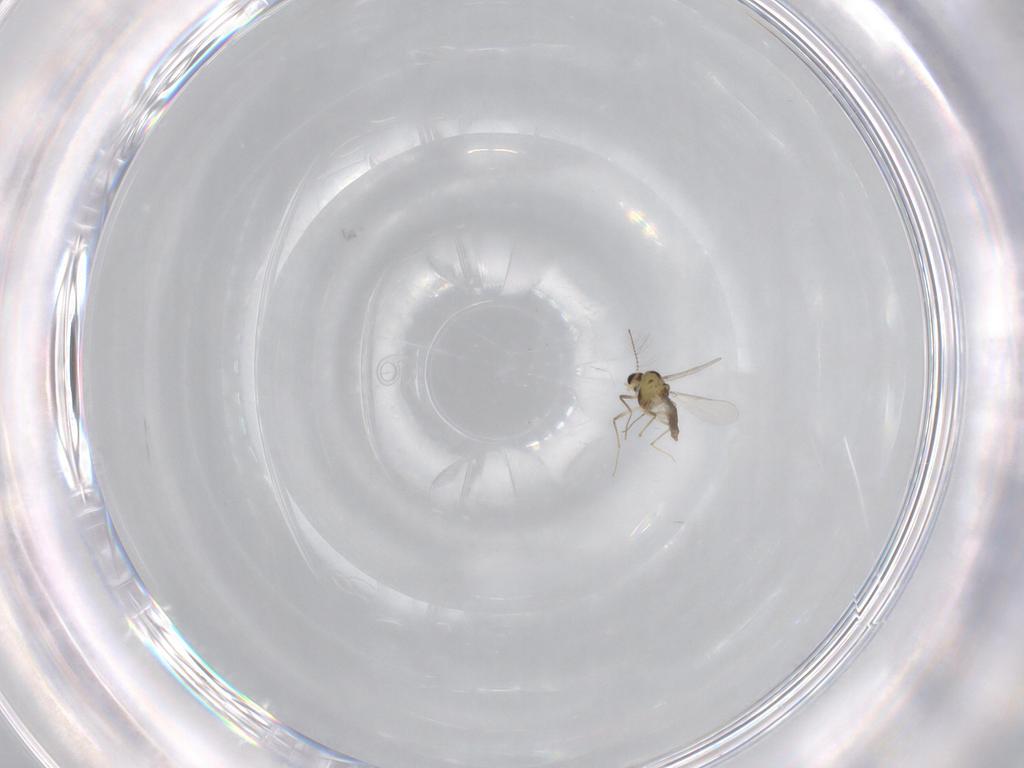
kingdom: Animalia
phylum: Arthropoda
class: Insecta
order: Diptera
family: Chironomidae
